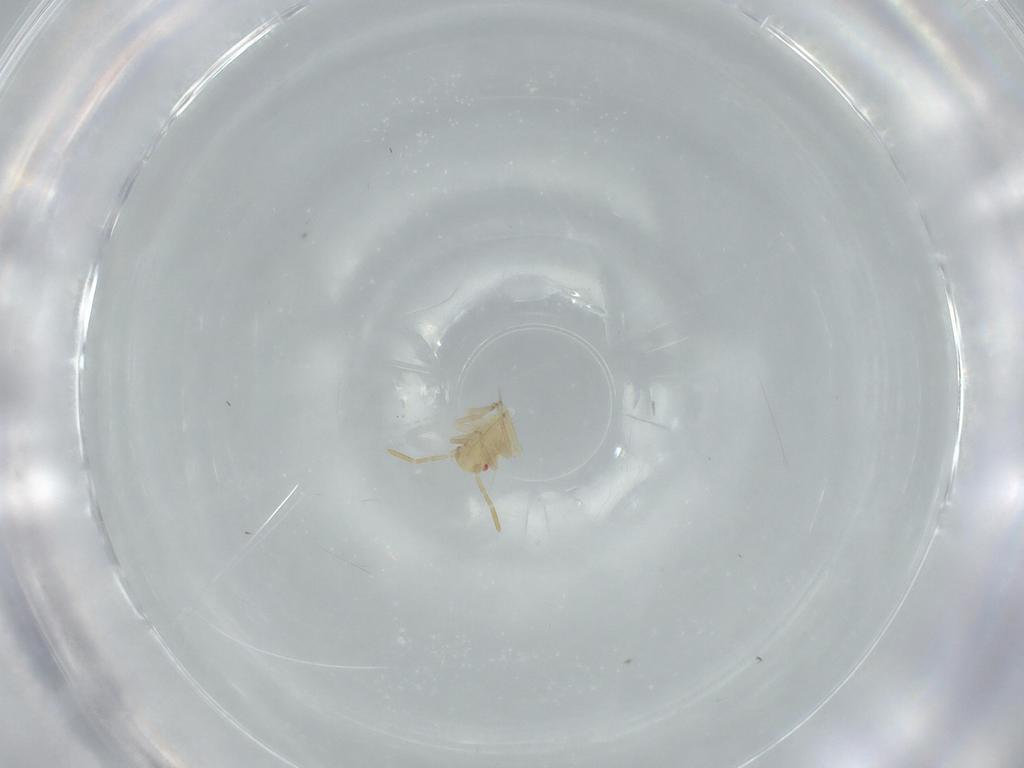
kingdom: Animalia
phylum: Arthropoda
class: Insecta
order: Hemiptera
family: Miridae
